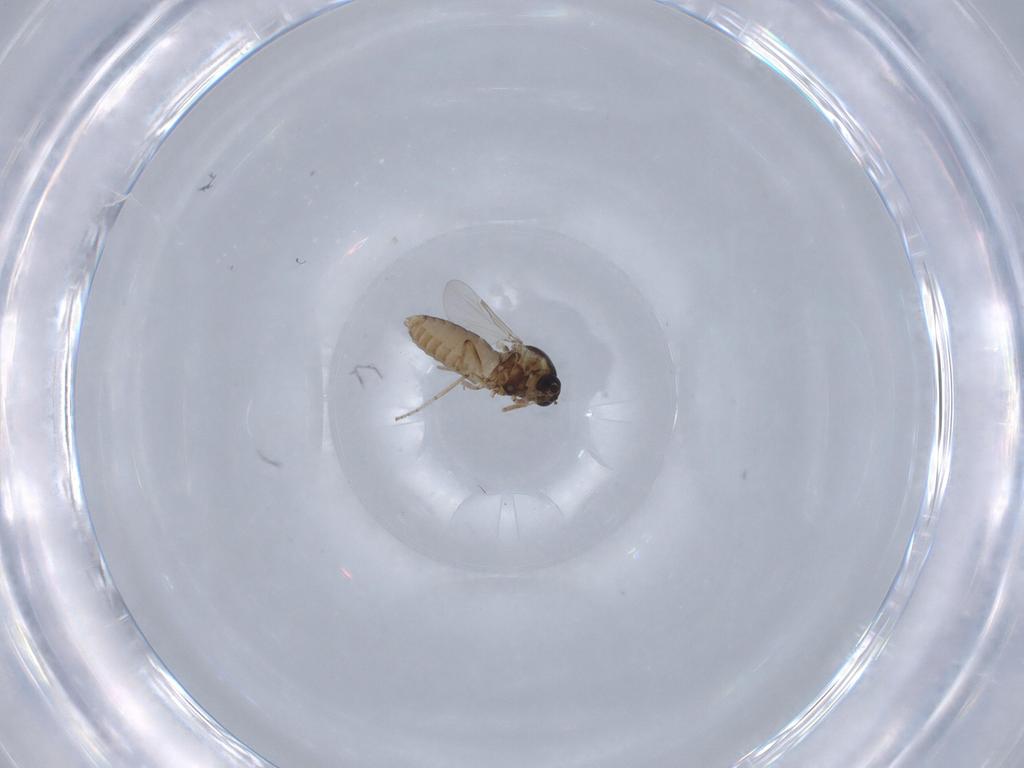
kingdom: Animalia
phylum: Arthropoda
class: Insecta
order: Diptera
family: Ceratopogonidae
